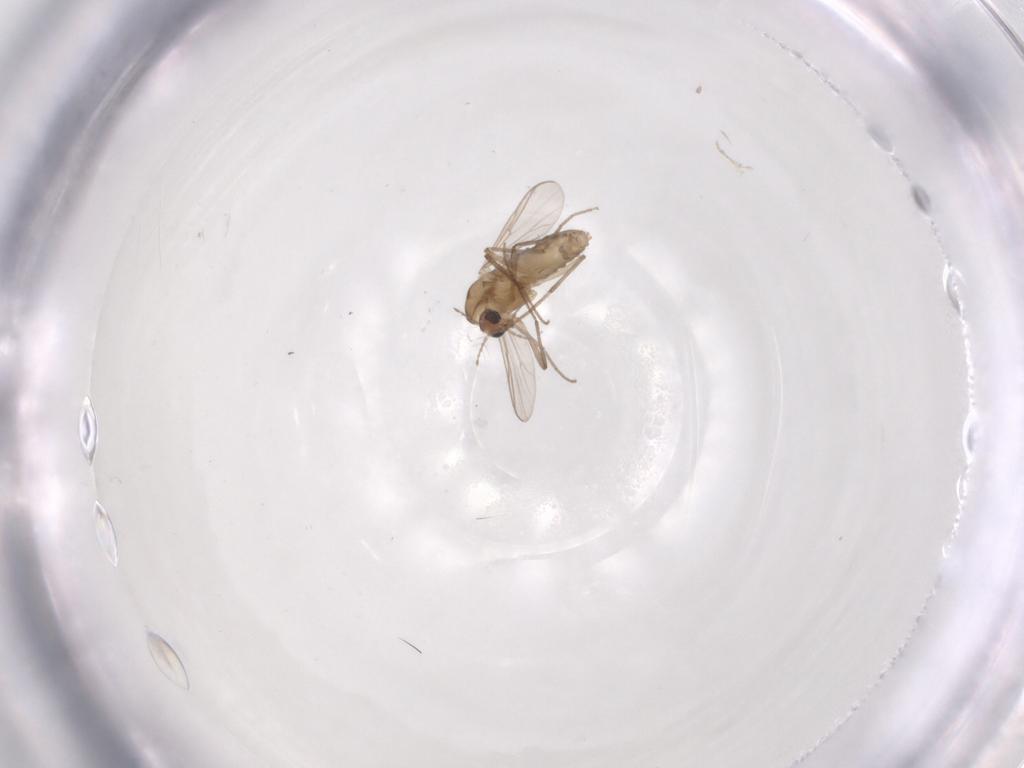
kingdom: Animalia
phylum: Arthropoda
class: Insecta
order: Diptera
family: Chironomidae
